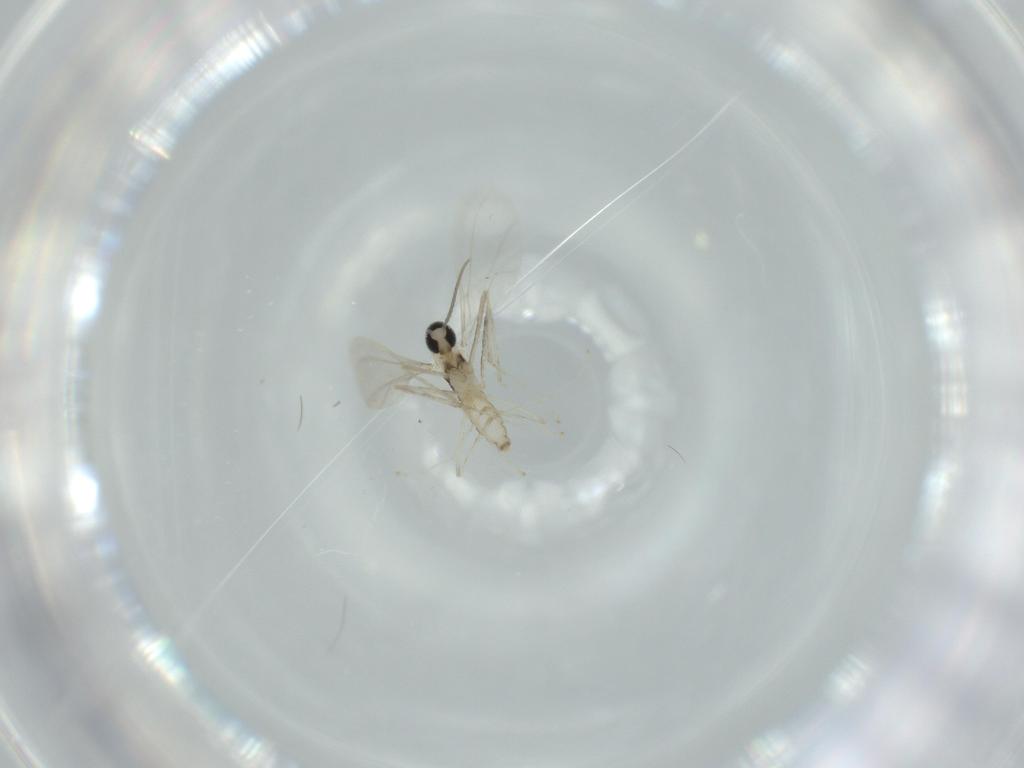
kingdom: Animalia
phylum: Arthropoda
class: Insecta
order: Diptera
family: Cecidomyiidae
